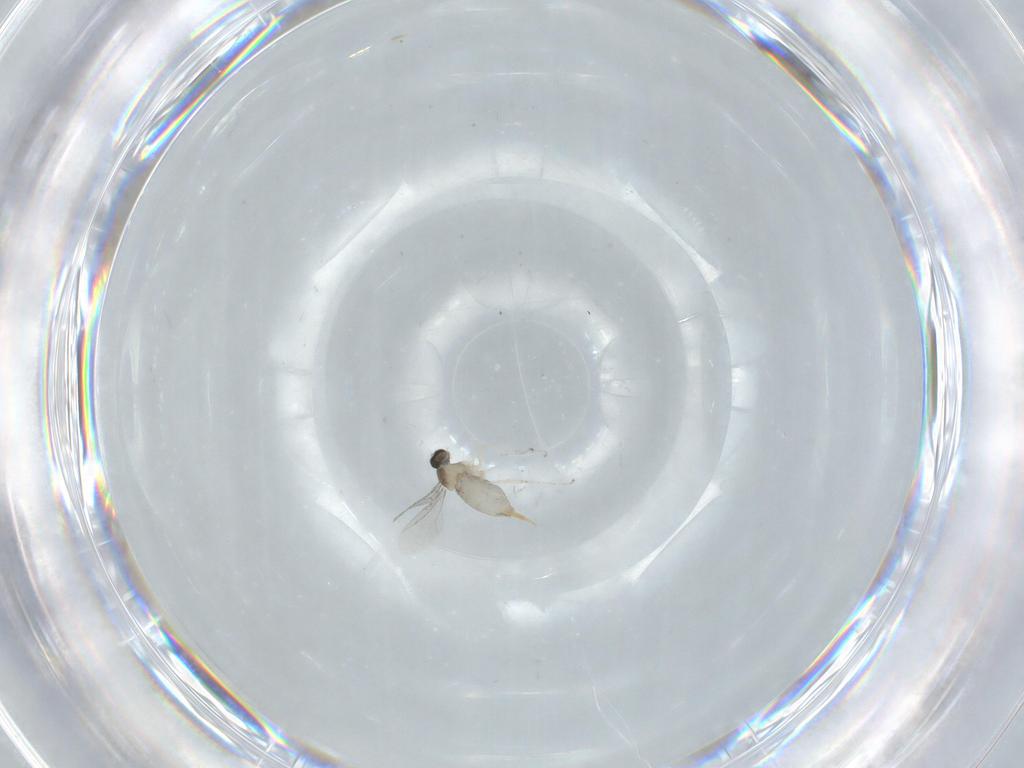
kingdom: Animalia
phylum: Arthropoda
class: Insecta
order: Diptera
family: Cecidomyiidae
